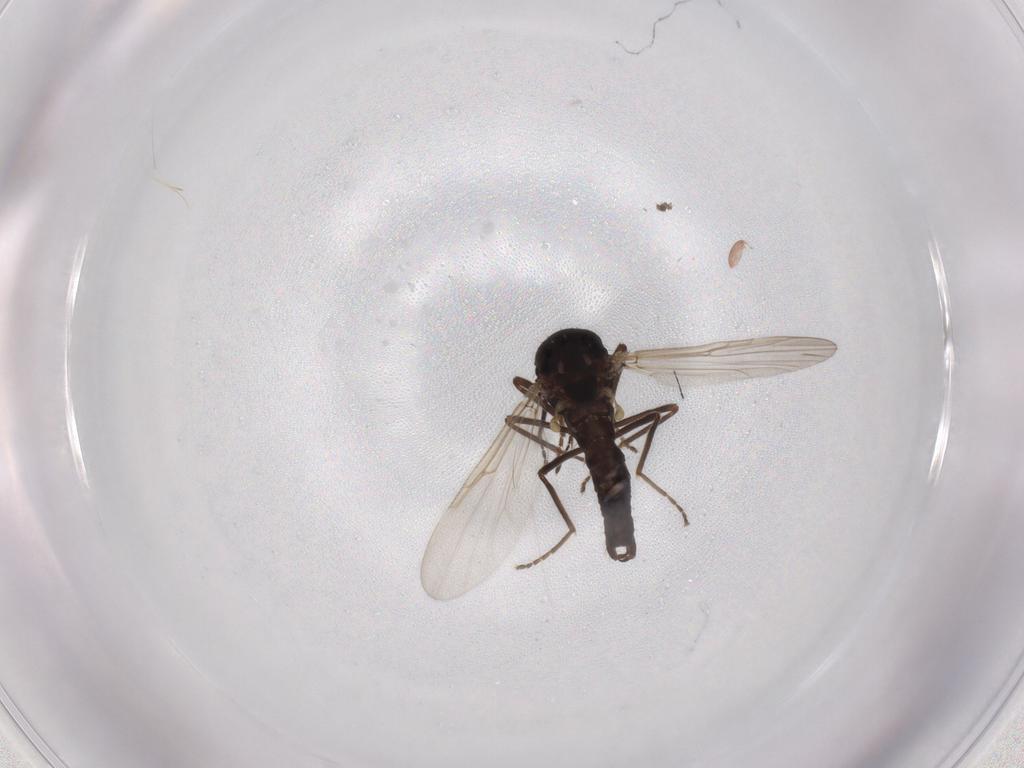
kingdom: Animalia
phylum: Arthropoda
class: Insecta
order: Diptera
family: Ceratopogonidae
